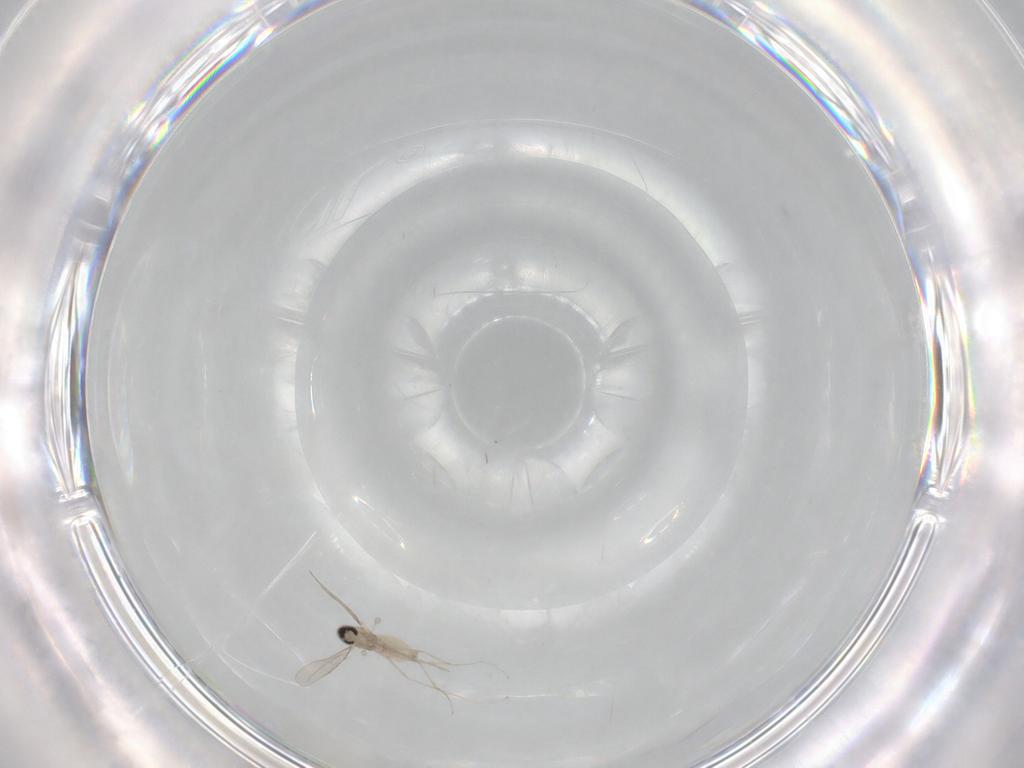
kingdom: Animalia
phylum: Arthropoda
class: Insecta
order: Diptera
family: Cecidomyiidae
